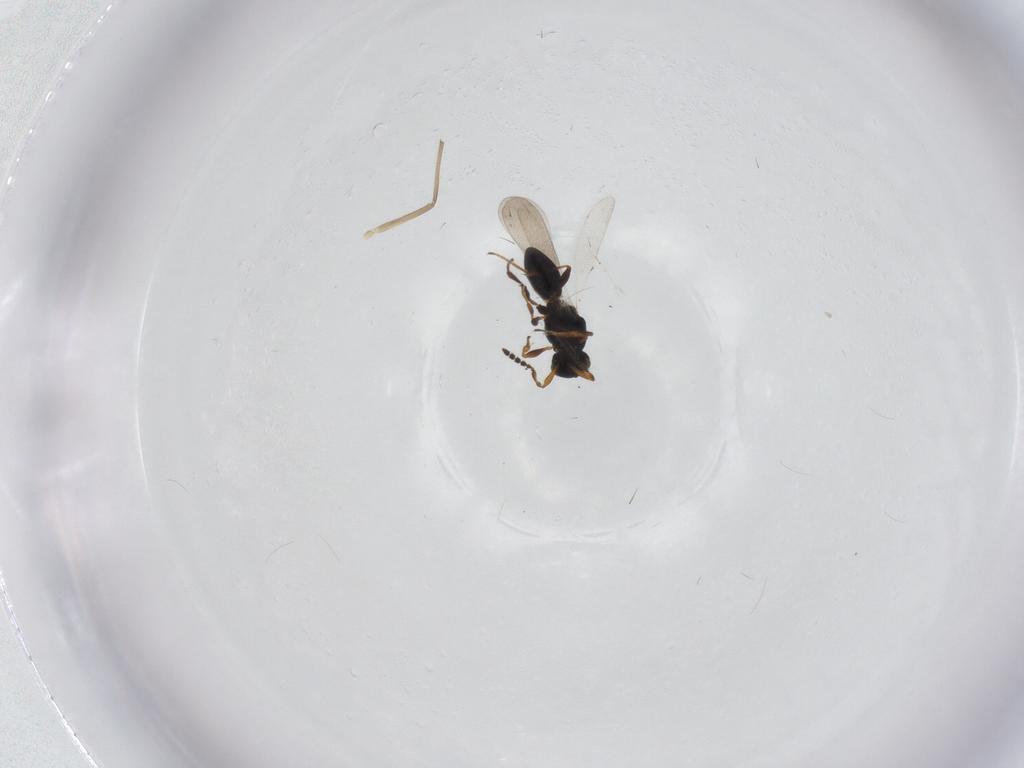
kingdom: Animalia
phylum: Arthropoda
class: Insecta
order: Hymenoptera
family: Platygastridae
